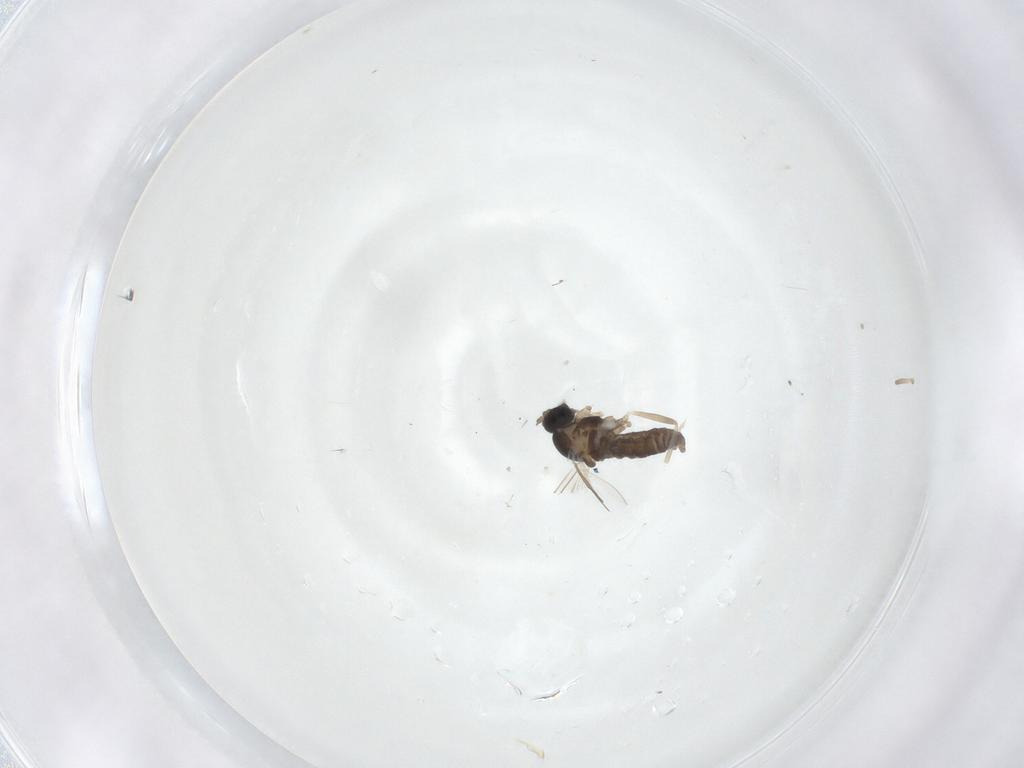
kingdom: Animalia
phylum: Arthropoda
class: Insecta
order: Diptera
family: Cecidomyiidae
